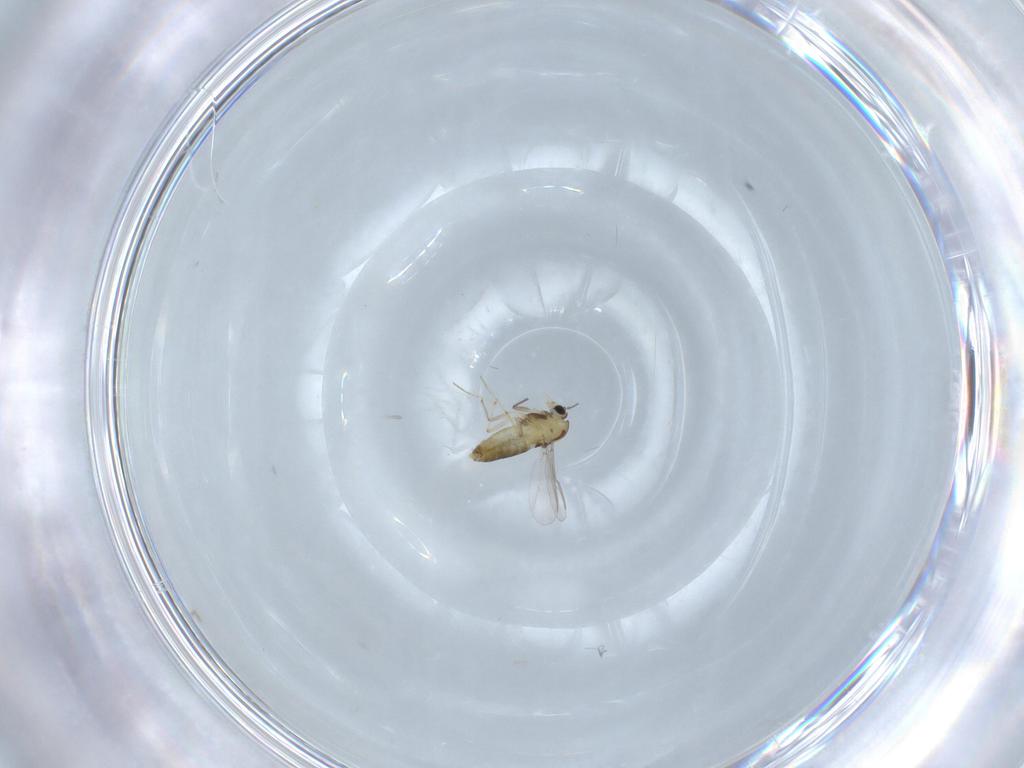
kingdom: Animalia
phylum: Arthropoda
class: Insecta
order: Diptera
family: Chironomidae
